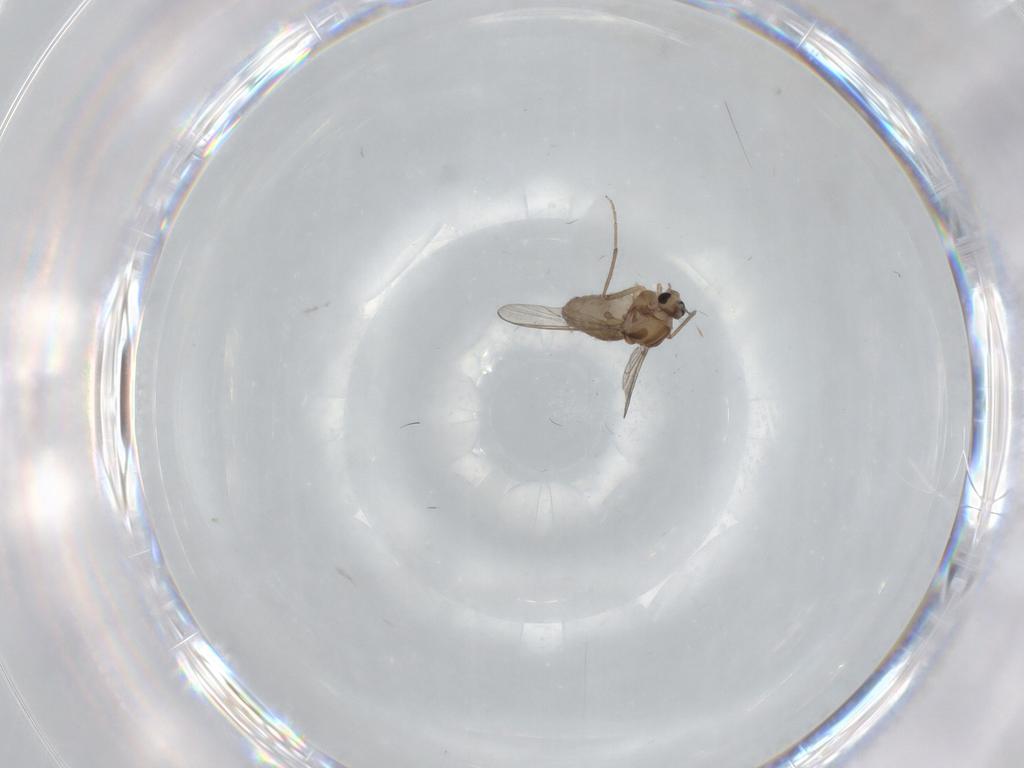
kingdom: Animalia
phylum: Arthropoda
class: Insecta
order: Diptera
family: Chironomidae
